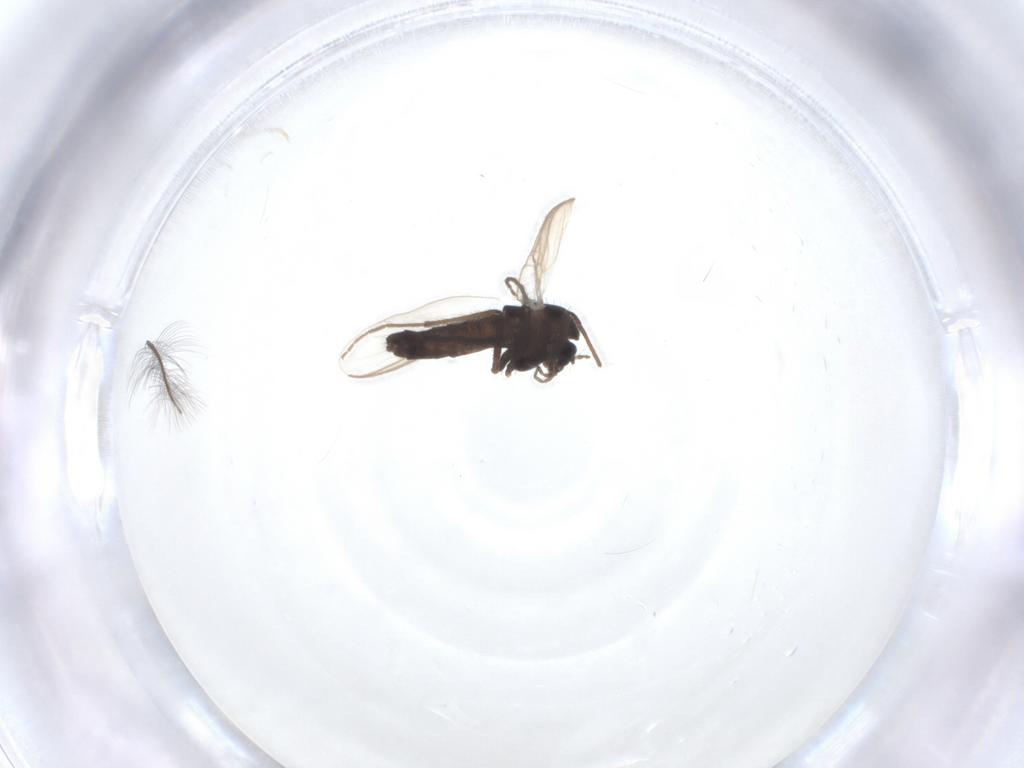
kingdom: Animalia
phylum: Arthropoda
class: Insecta
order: Diptera
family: Chironomidae
